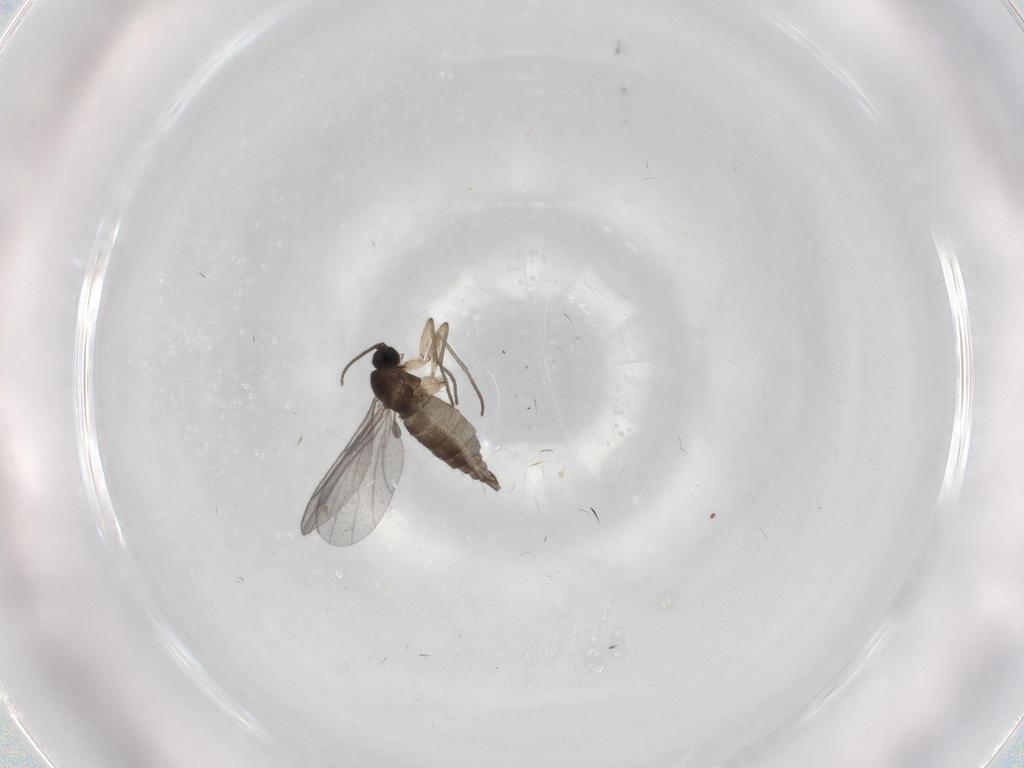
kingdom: Animalia
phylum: Arthropoda
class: Insecta
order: Diptera
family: Sciaridae
